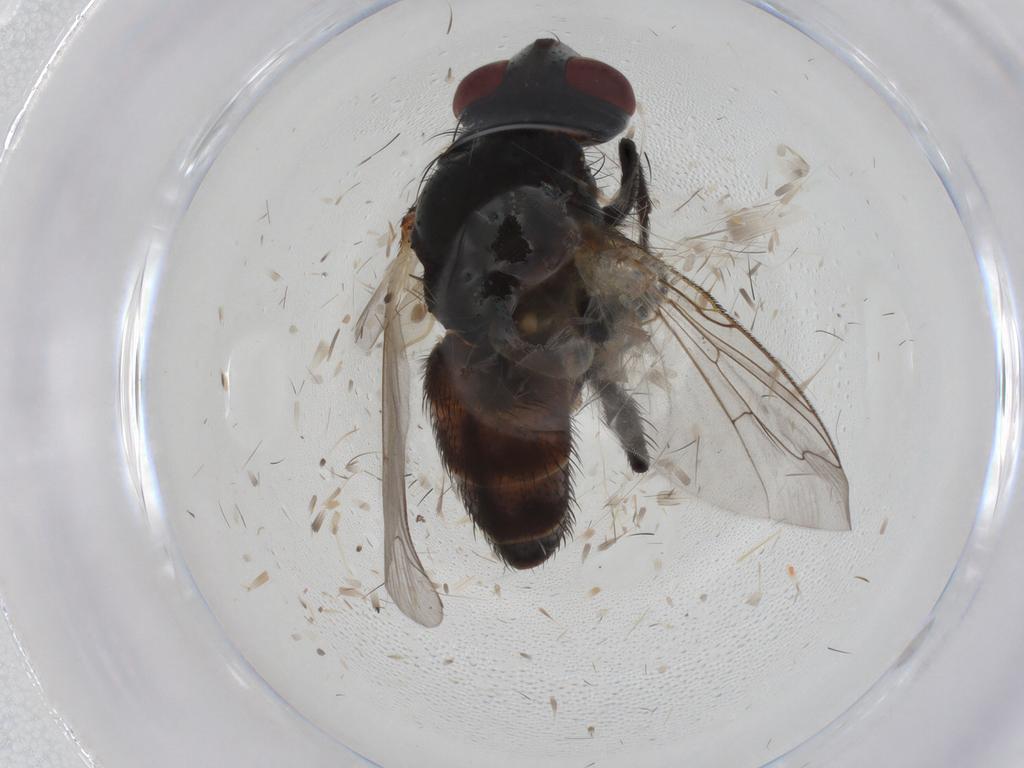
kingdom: Animalia
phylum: Arthropoda
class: Insecta
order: Diptera
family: Sarcophagidae
